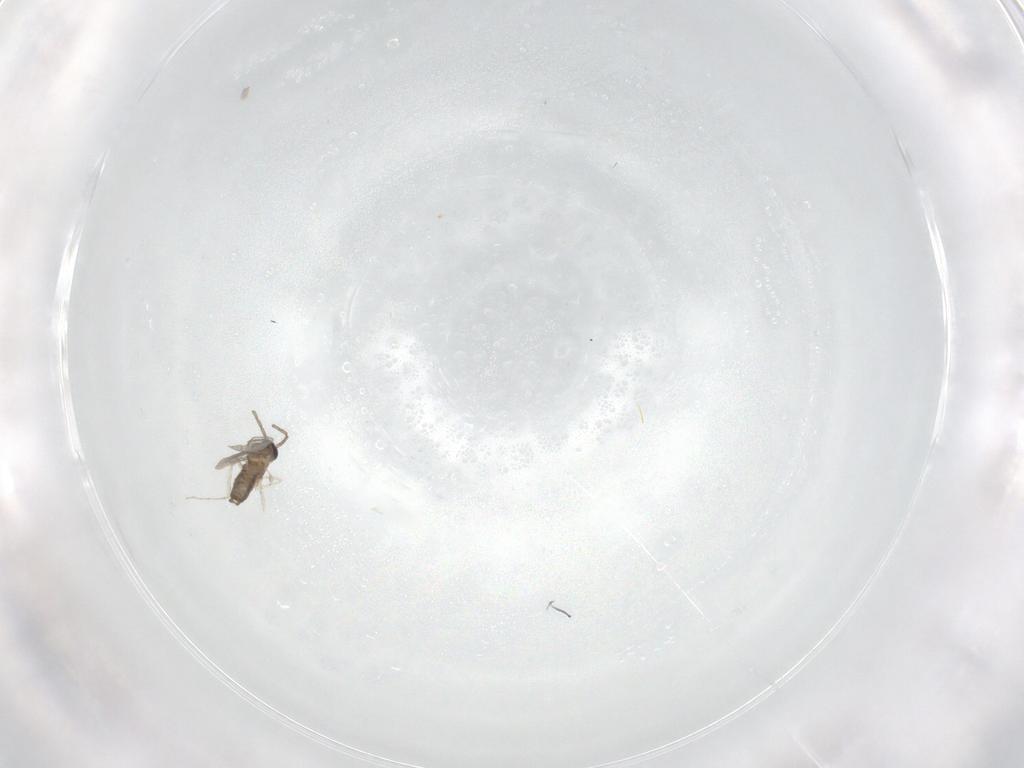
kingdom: Animalia
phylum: Arthropoda
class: Insecta
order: Diptera
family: Cecidomyiidae
